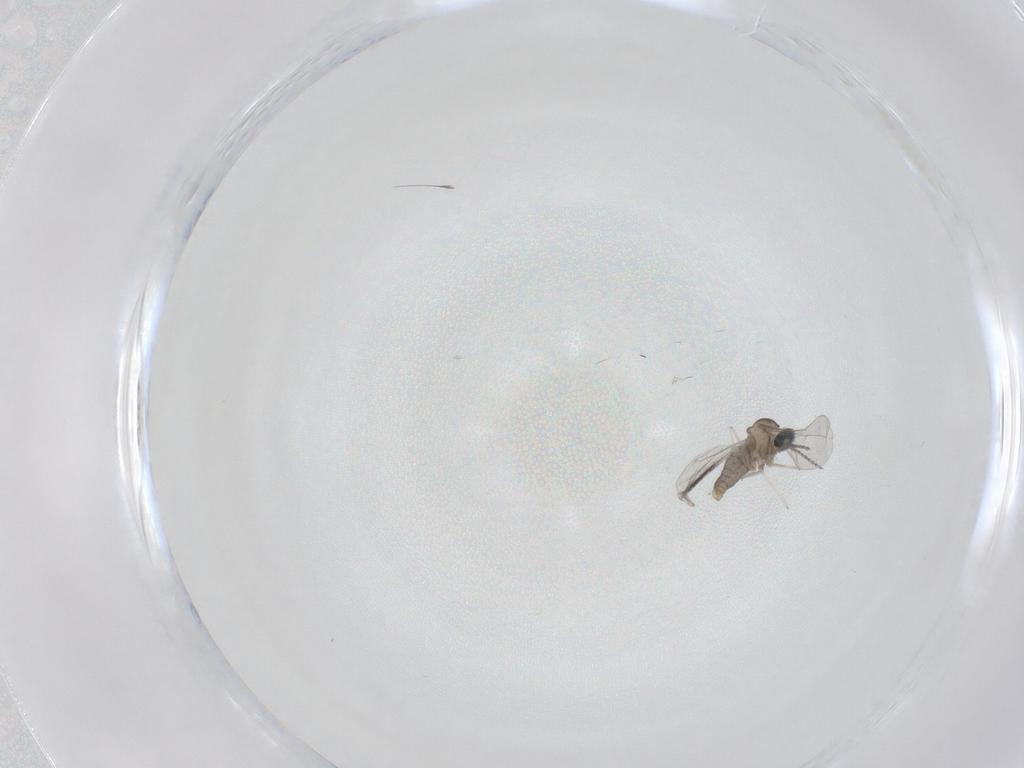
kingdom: Animalia
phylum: Arthropoda
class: Insecta
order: Diptera
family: Cecidomyiidae
